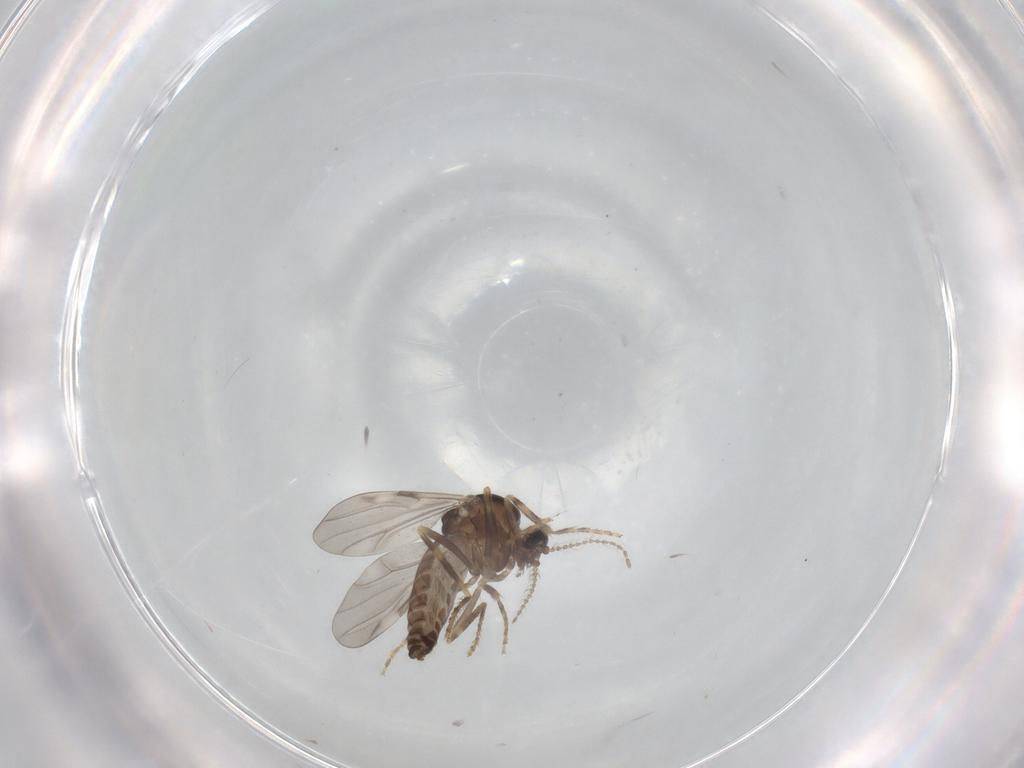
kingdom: Animalia
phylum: Arthropoda
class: Insecta
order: Diptera
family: Ceratopogonidae
